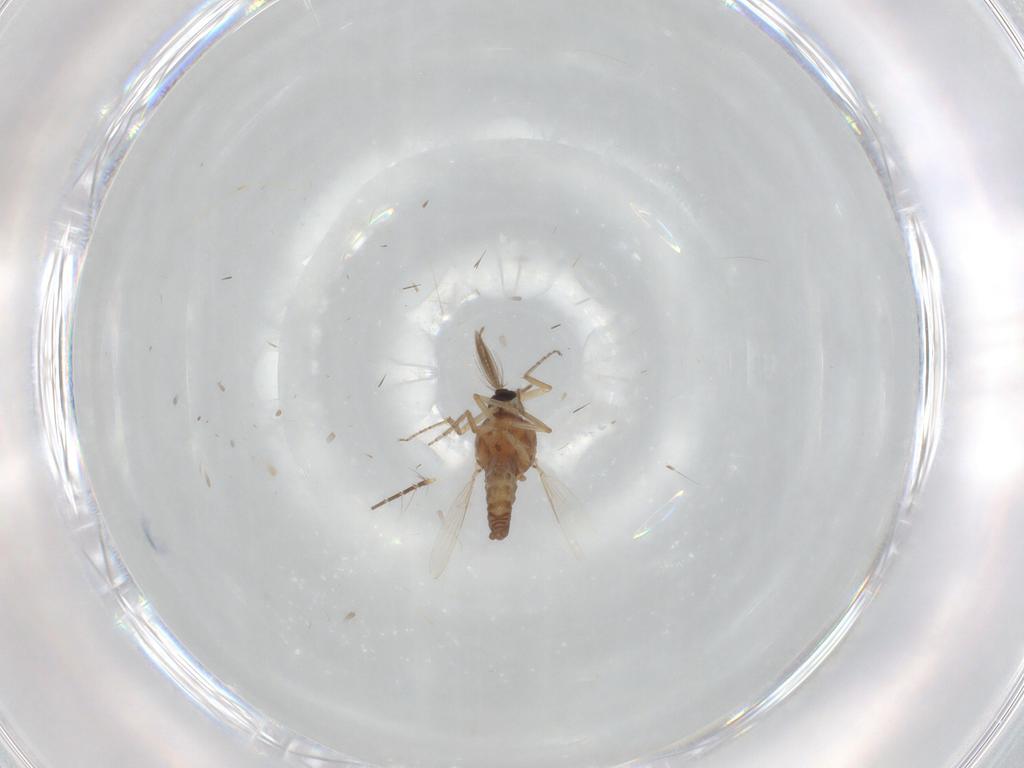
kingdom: Animalia
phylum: Arthropoda
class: Insecta
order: Diptera
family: Ceratopogonidae
